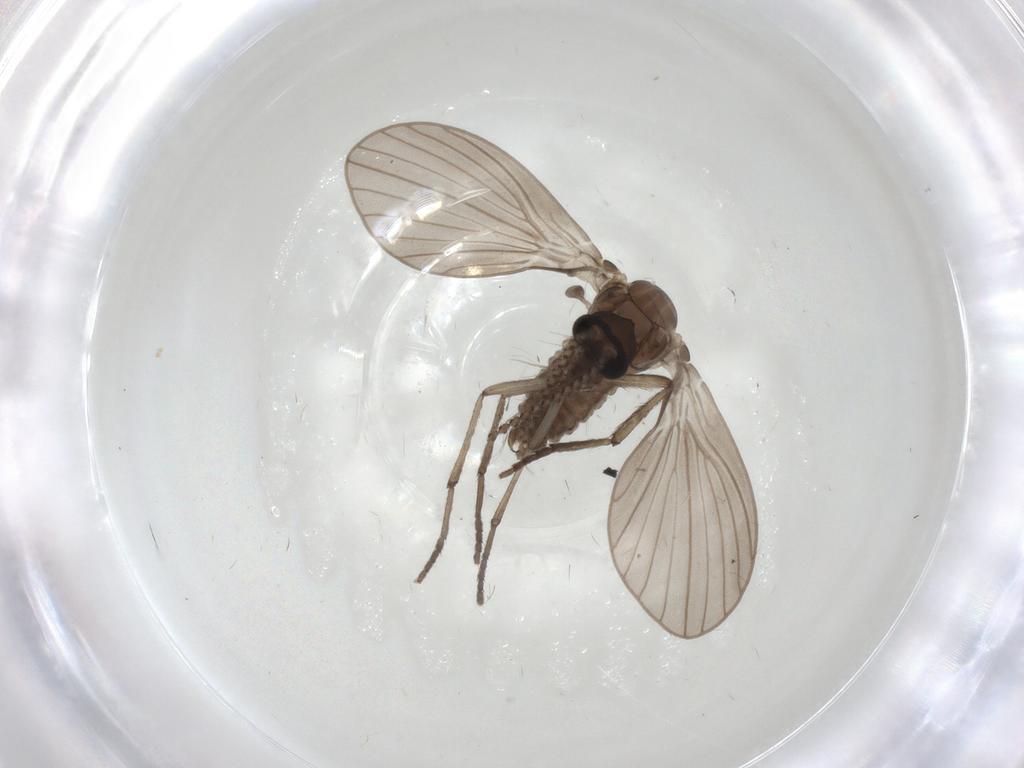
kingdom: Animalia
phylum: Arthropoda
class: Insecta
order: Diptera
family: Psychodidae
